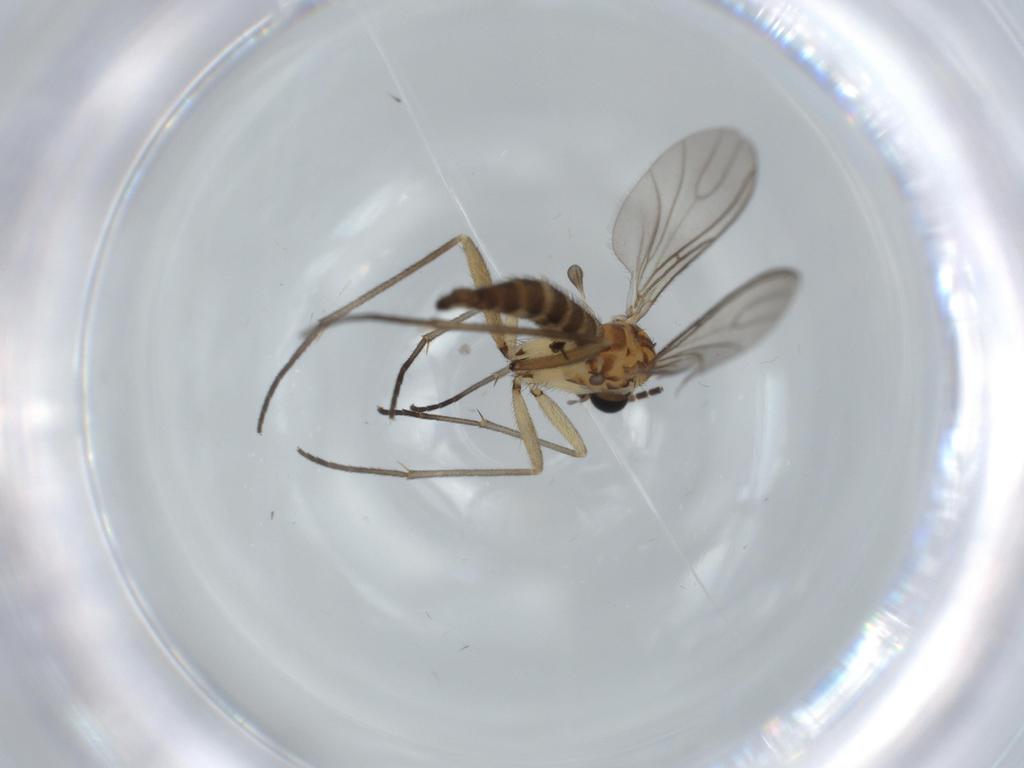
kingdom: Animalia
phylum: Arthropoda
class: Insecta
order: Diptera
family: Sciaridae
